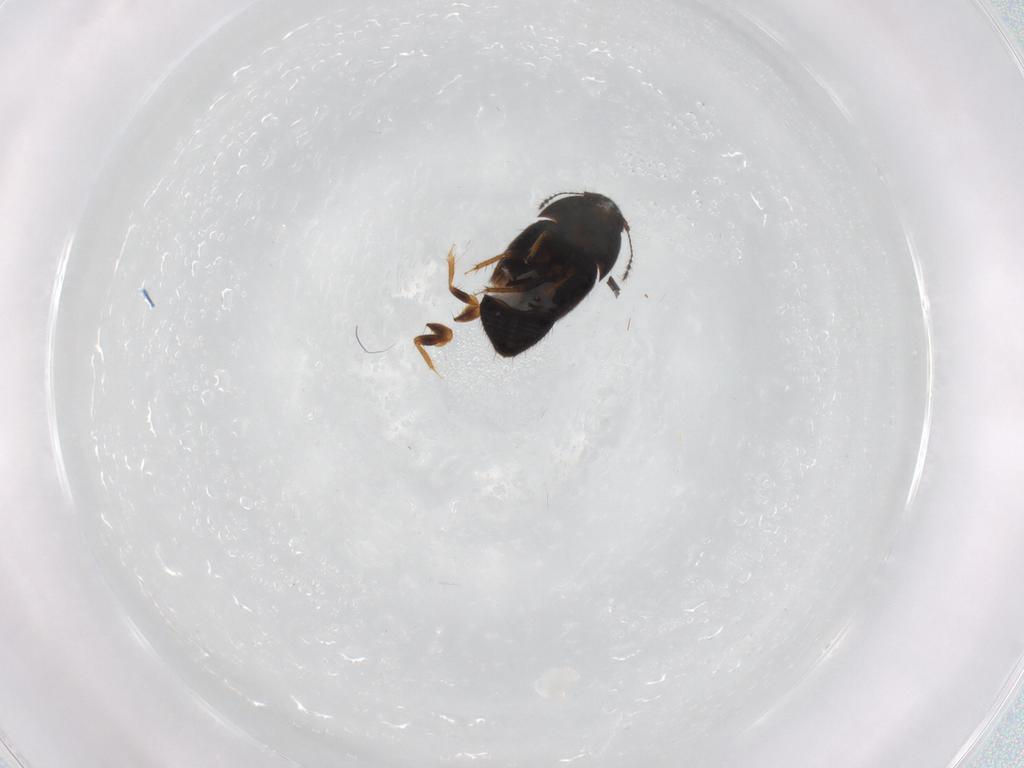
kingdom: Animalia
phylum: Arthropoda
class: Insecta
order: Coleoptera
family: Ptiliidae
